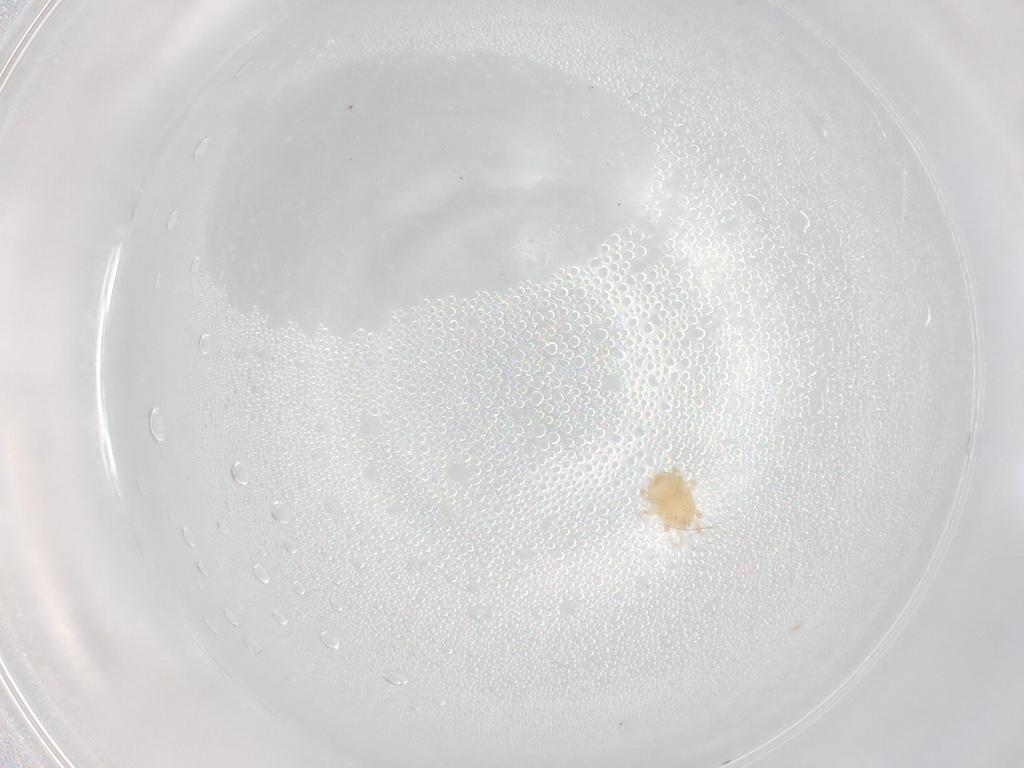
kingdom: Animalia
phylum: Arthropoda
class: Arachnida
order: Mesostigmata
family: Melicharidae
